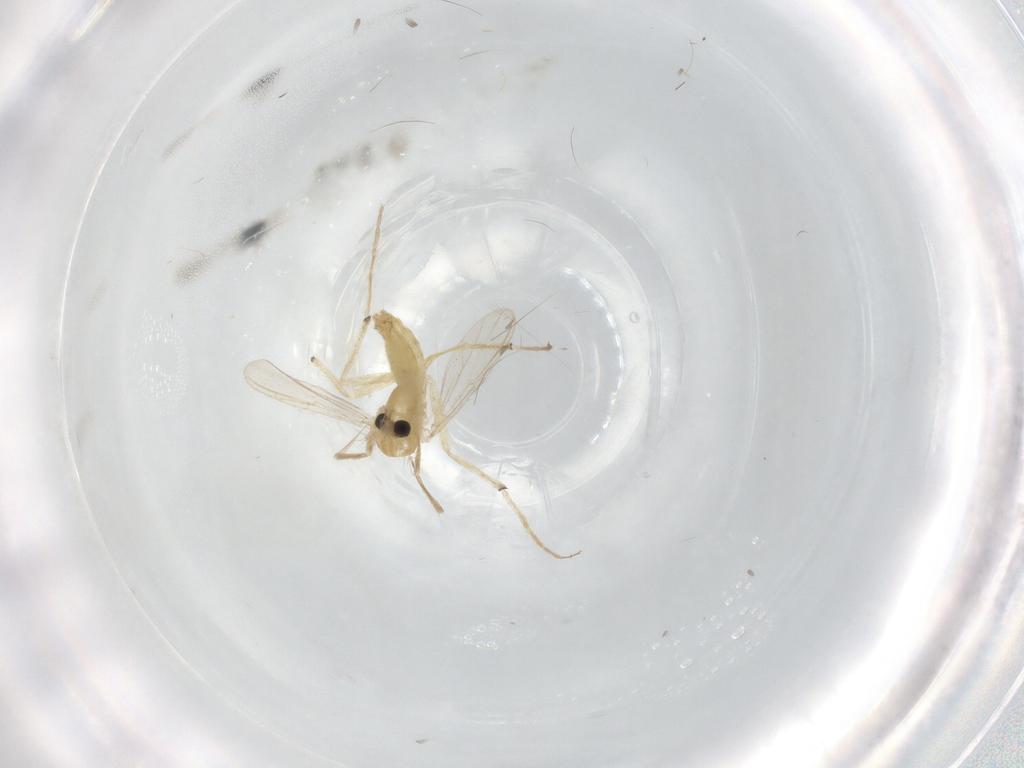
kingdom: Animalia
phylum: Arthropoda
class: Insecta
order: Diptera
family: Chironomidae
